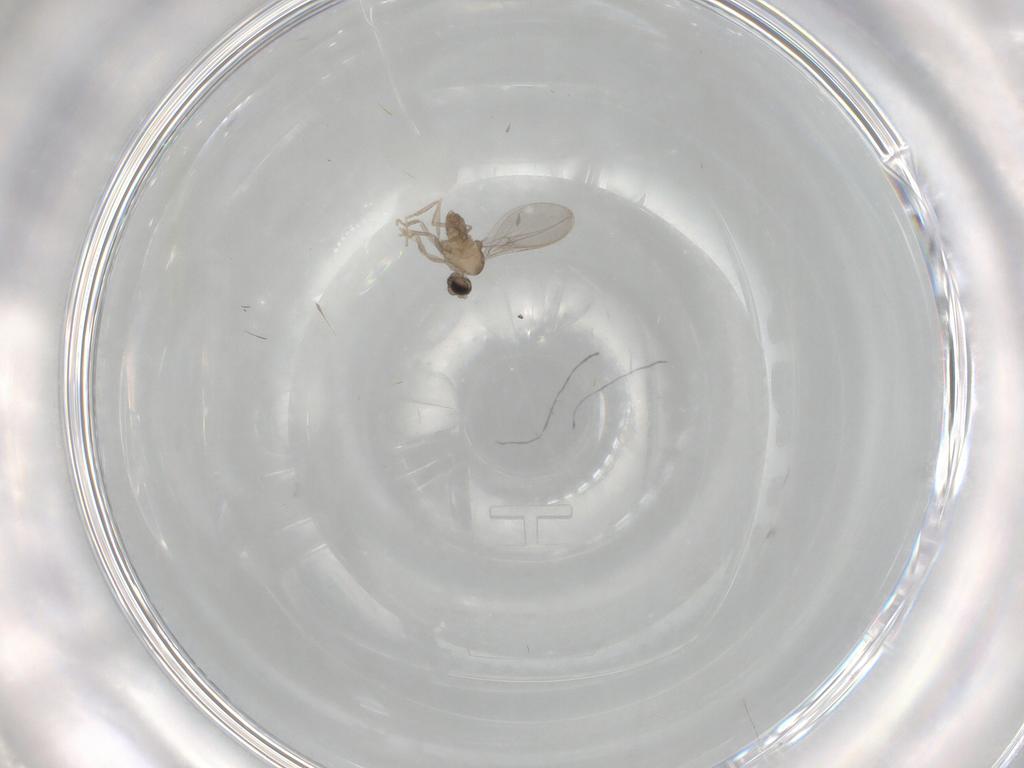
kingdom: Animalia
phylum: Arthropoda
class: Insecta
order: Diptera
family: Cecidomyiidae
